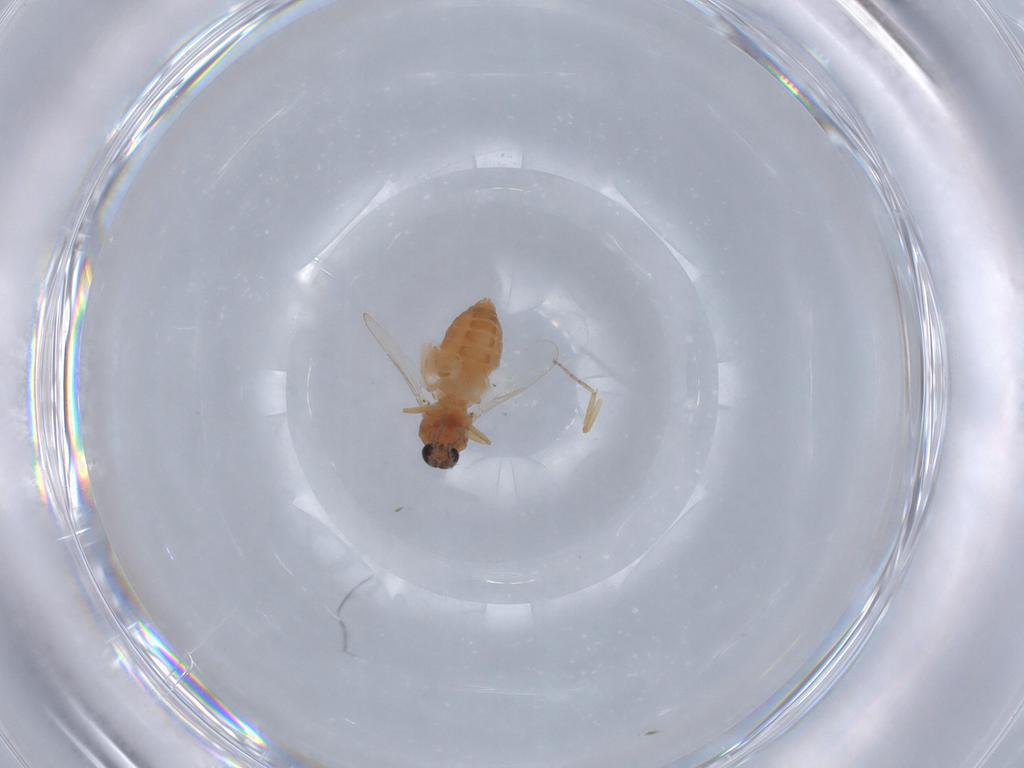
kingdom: Animalia
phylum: Arthropoda
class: Insecta
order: Diptera
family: Ceratopogonidae
